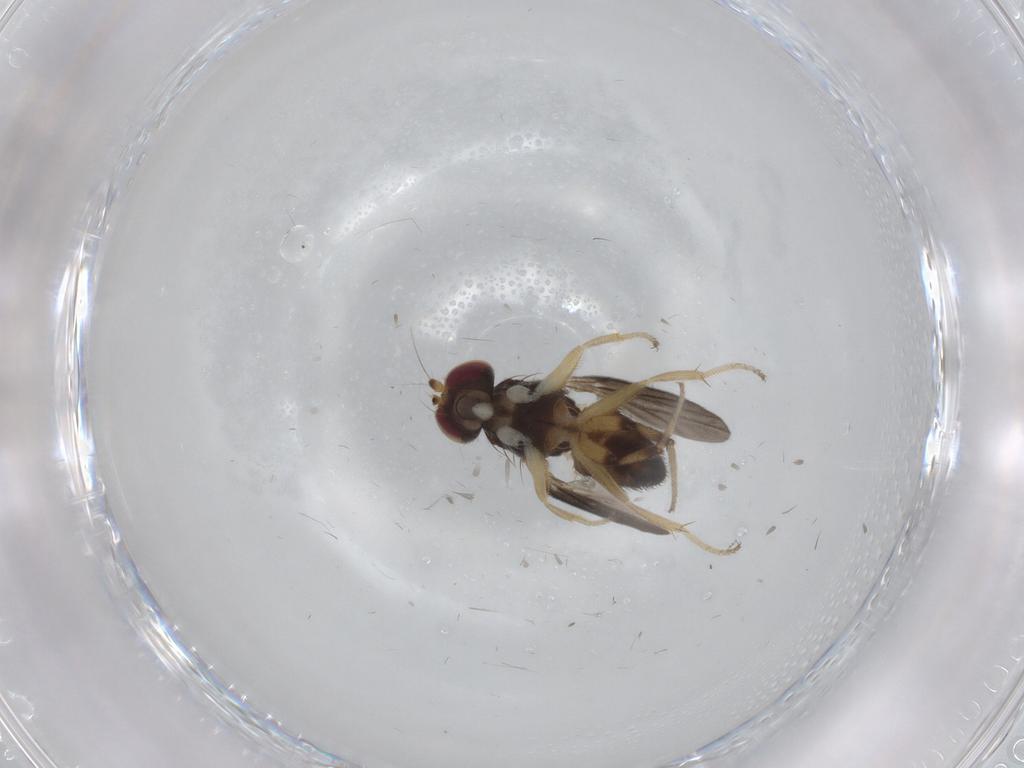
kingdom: Animalia
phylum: Arthropoda
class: Insecta
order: Diptera
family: Clusiidae
